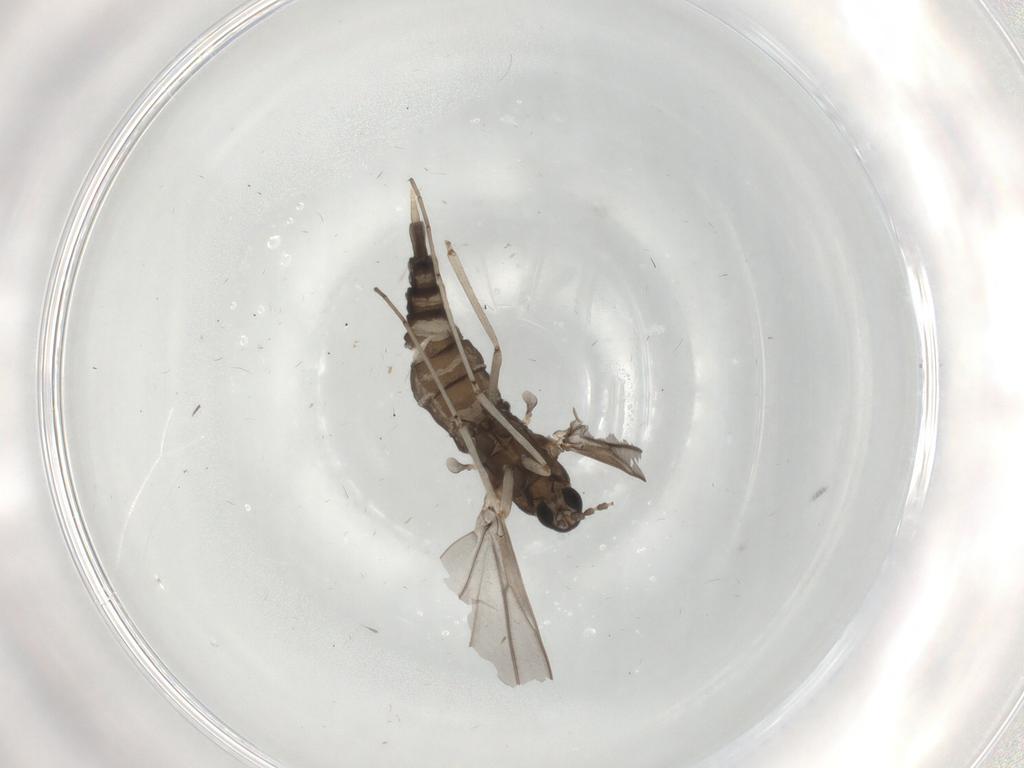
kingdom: Animalia
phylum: Arthropoda
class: Insecta
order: Diptera
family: Cecidomyiidae
